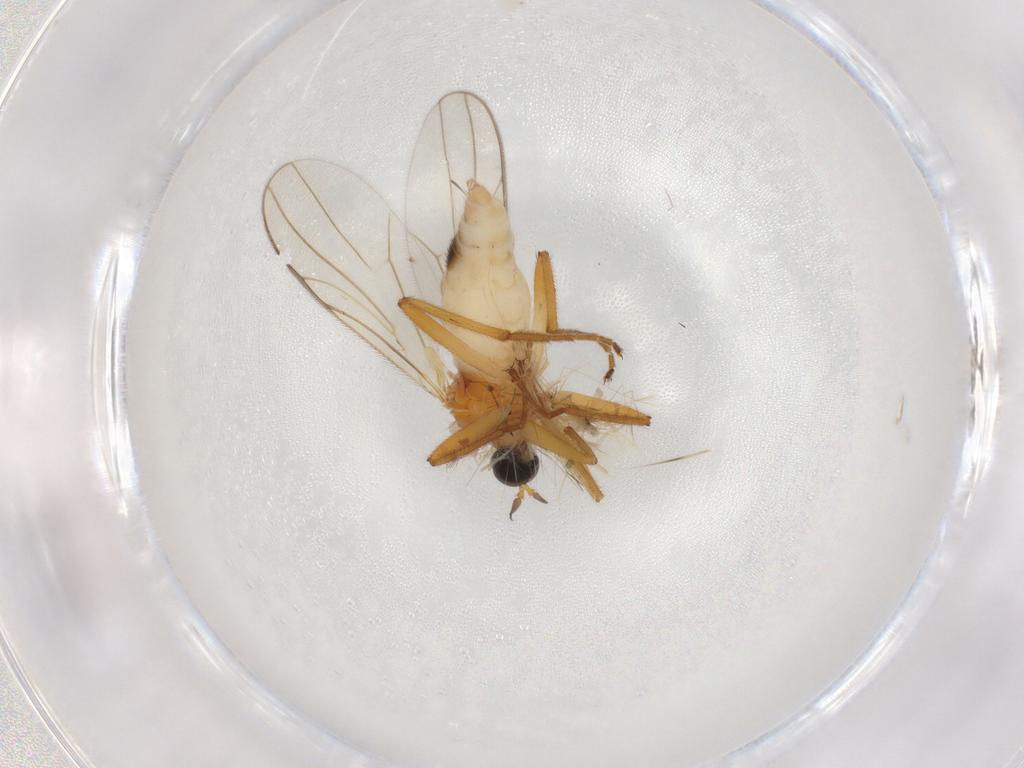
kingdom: Animalia
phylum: Arthropoda
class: Insecta
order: Diptera
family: Hybotidae
